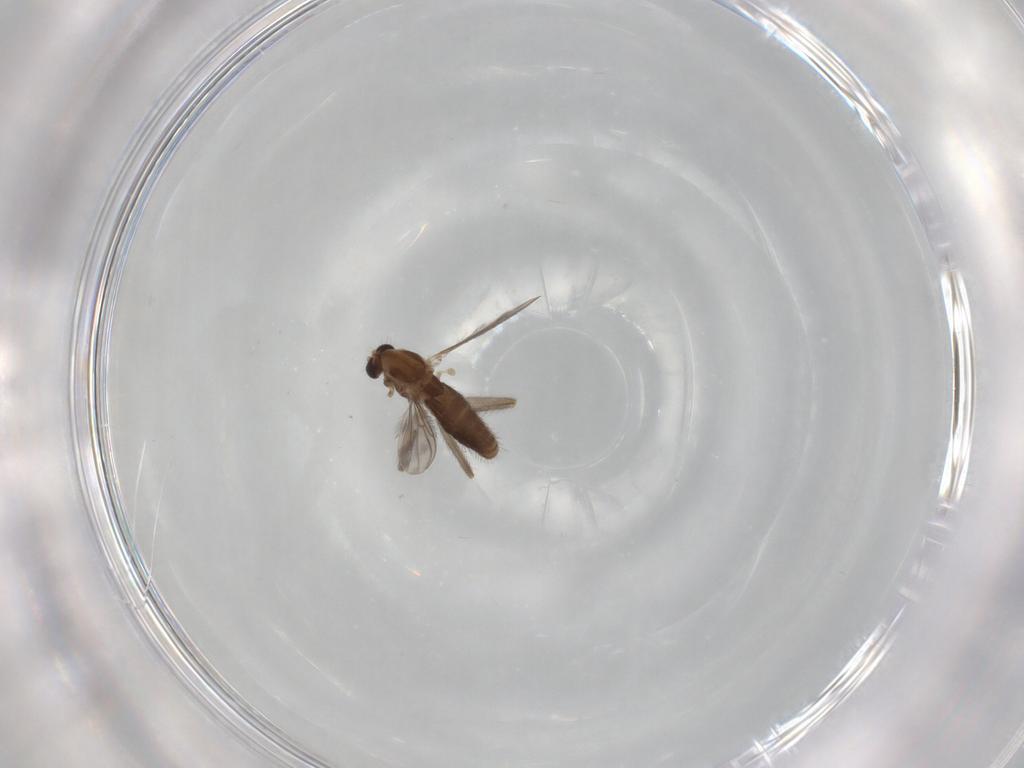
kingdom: Animalia
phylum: Arthropoda
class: Insecta
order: Diptera
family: Chironomidae
